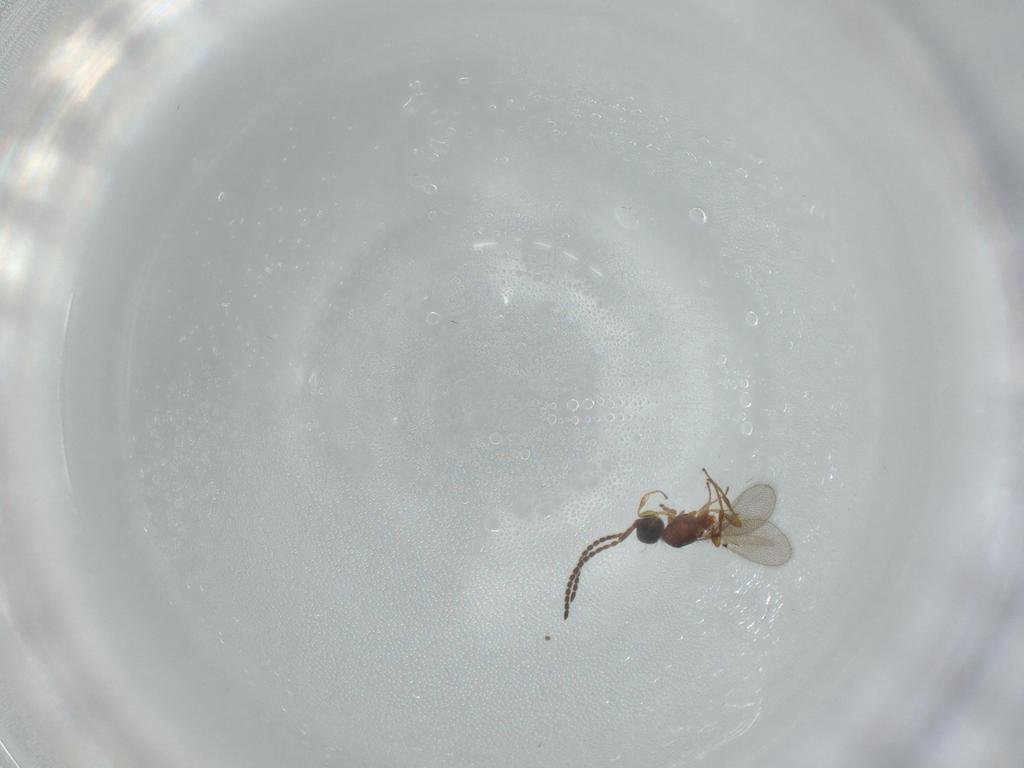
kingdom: Animalia
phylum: Arthropoda
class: Insecta
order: Hymenoptera
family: Diapriidae
